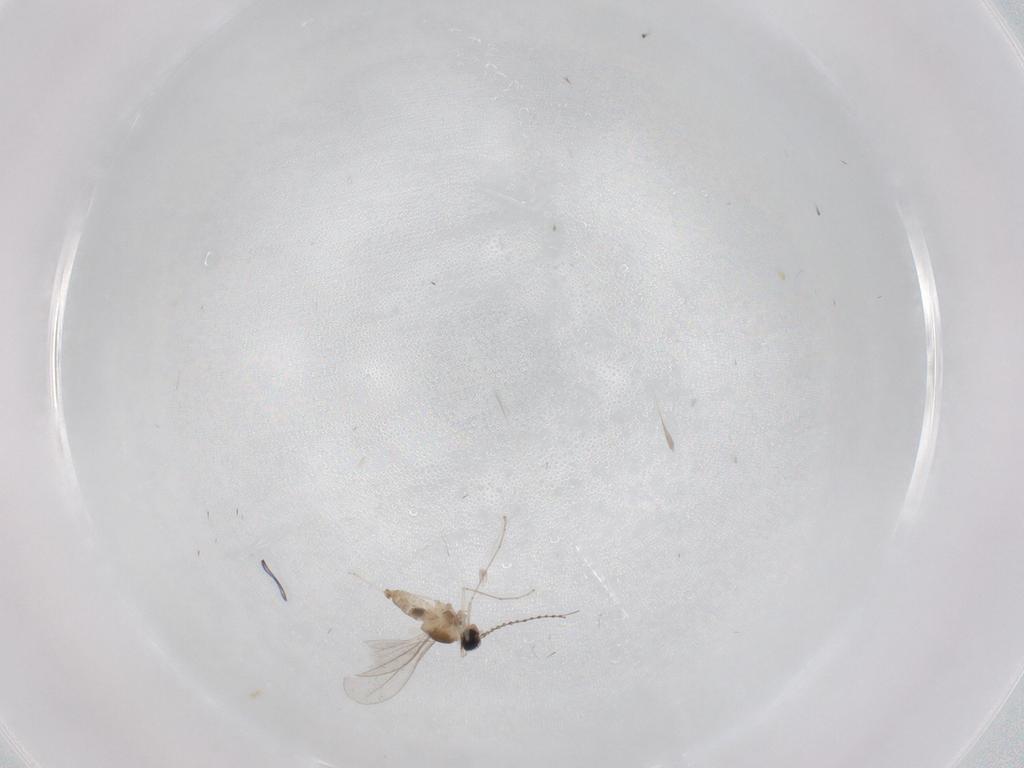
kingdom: Animalia
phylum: Arthropoda
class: Insecta
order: Diptera
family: Cecidomyiidae
